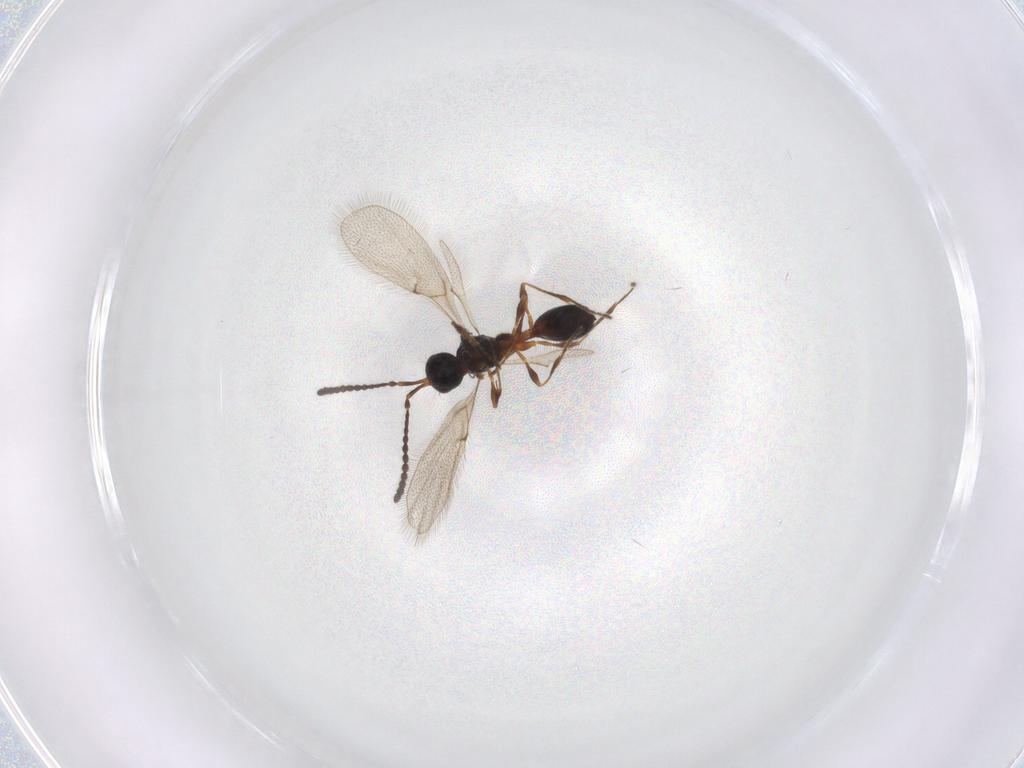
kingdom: Animalia
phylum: Arthropoda
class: Insecta
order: Hymenoptera
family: Diapriidae
